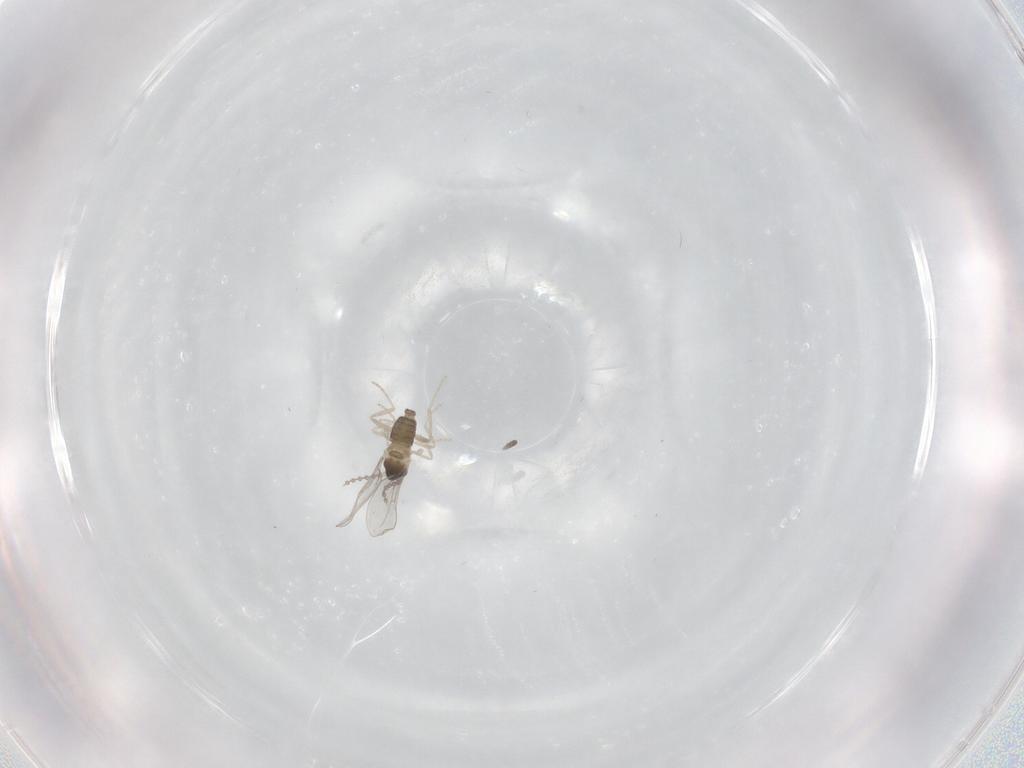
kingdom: Animalia
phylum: Arthropoda
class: Insecta
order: Diptera
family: Cecidomyiidae
